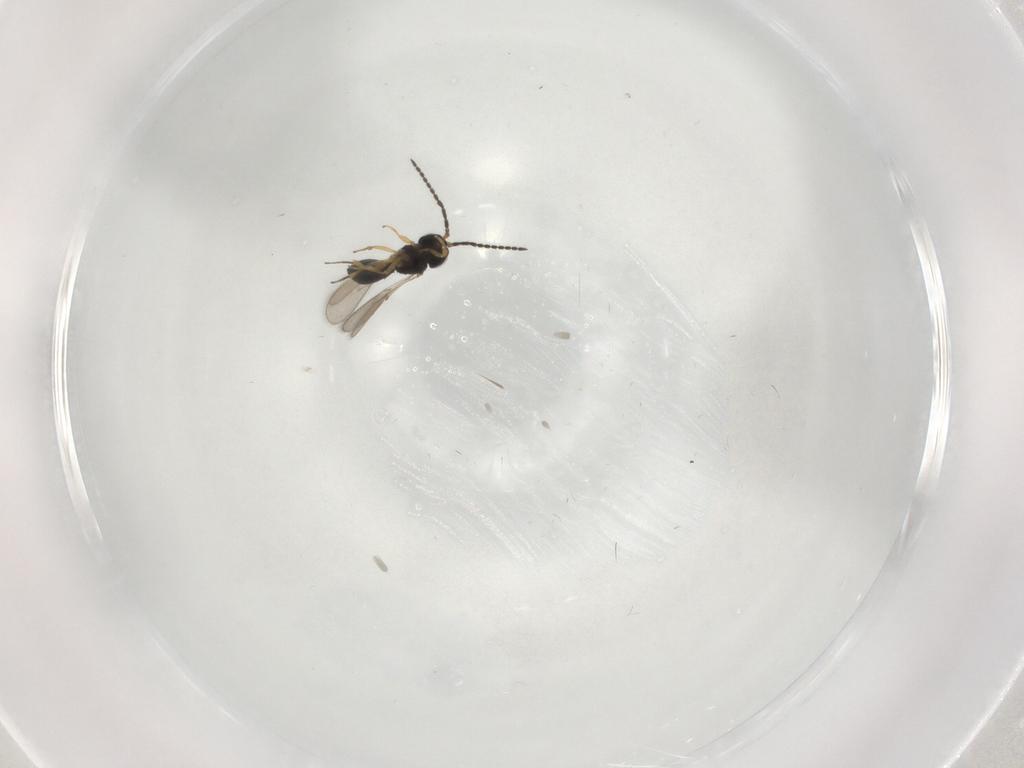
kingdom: Animalia
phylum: Arthropoda
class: Insecta
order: Hymenoptera
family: Scelionidae
